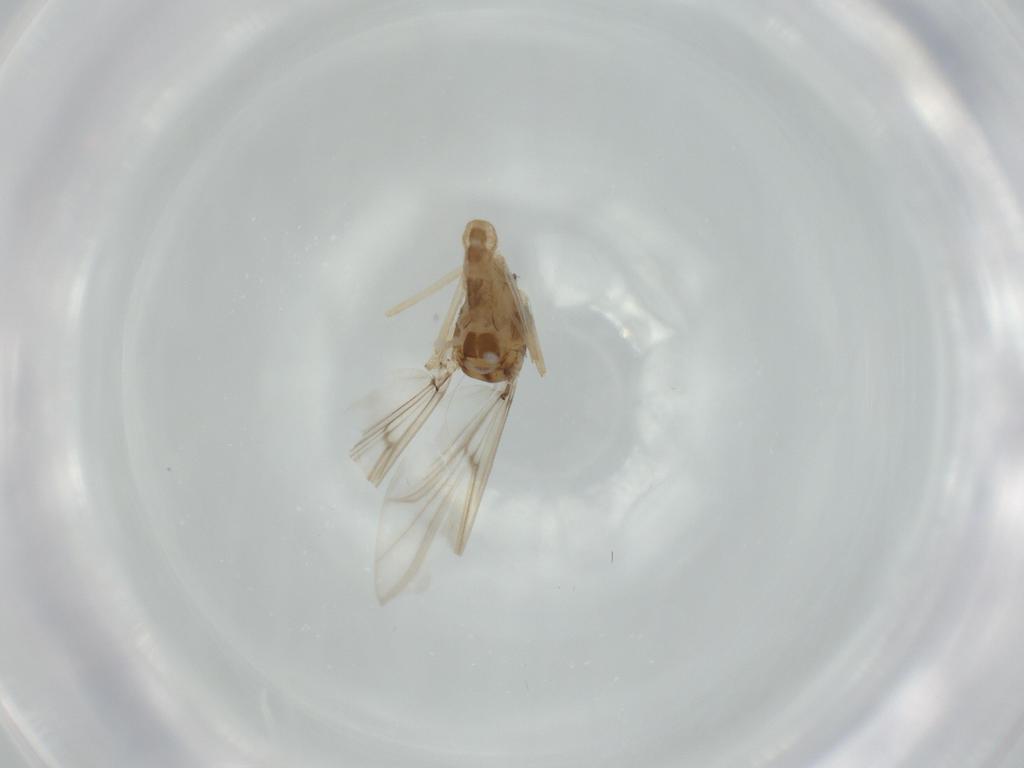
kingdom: Animalia
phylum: Arthropoda
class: Insecta
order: Diptera
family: Chironomidae
